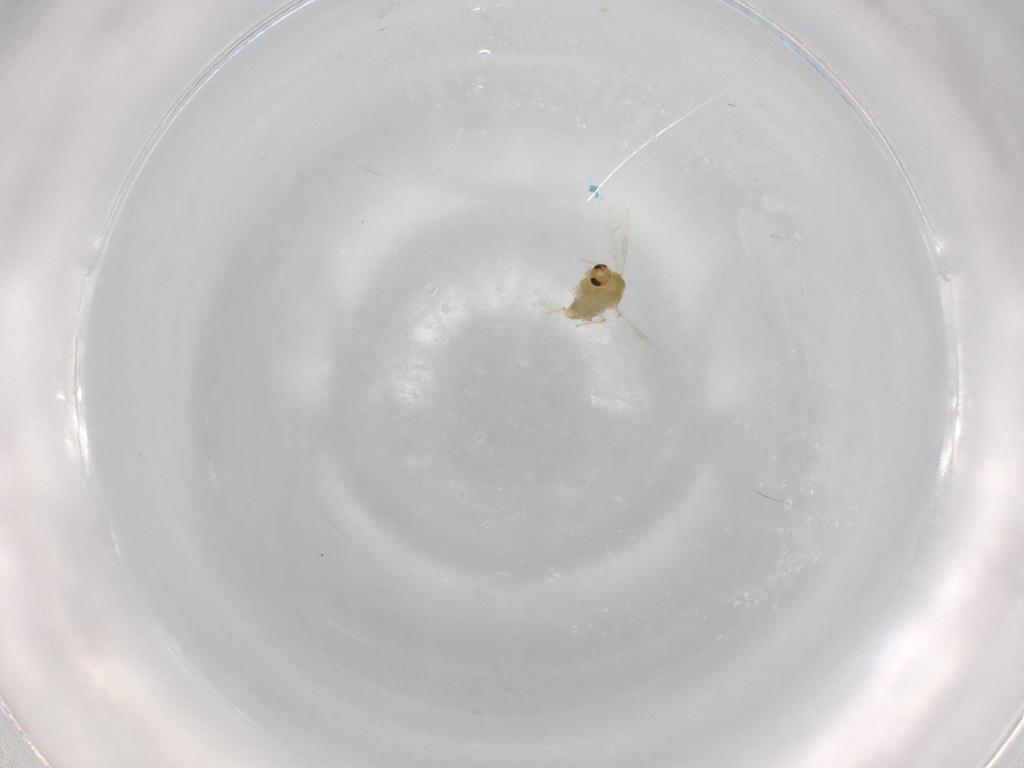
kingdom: Animalia
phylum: Arthropoda
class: Insecta
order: Diptera
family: Chironomidae
